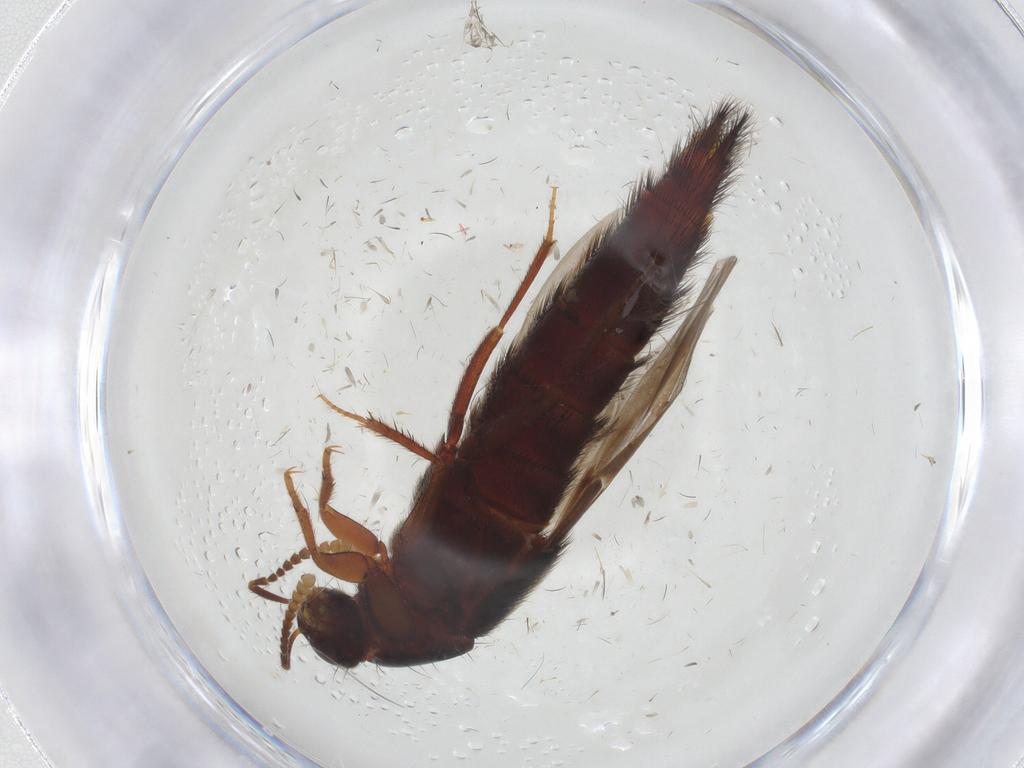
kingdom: Animalia
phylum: Arthropoda
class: Insecta
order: Coleoptera
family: Staphylinidae
